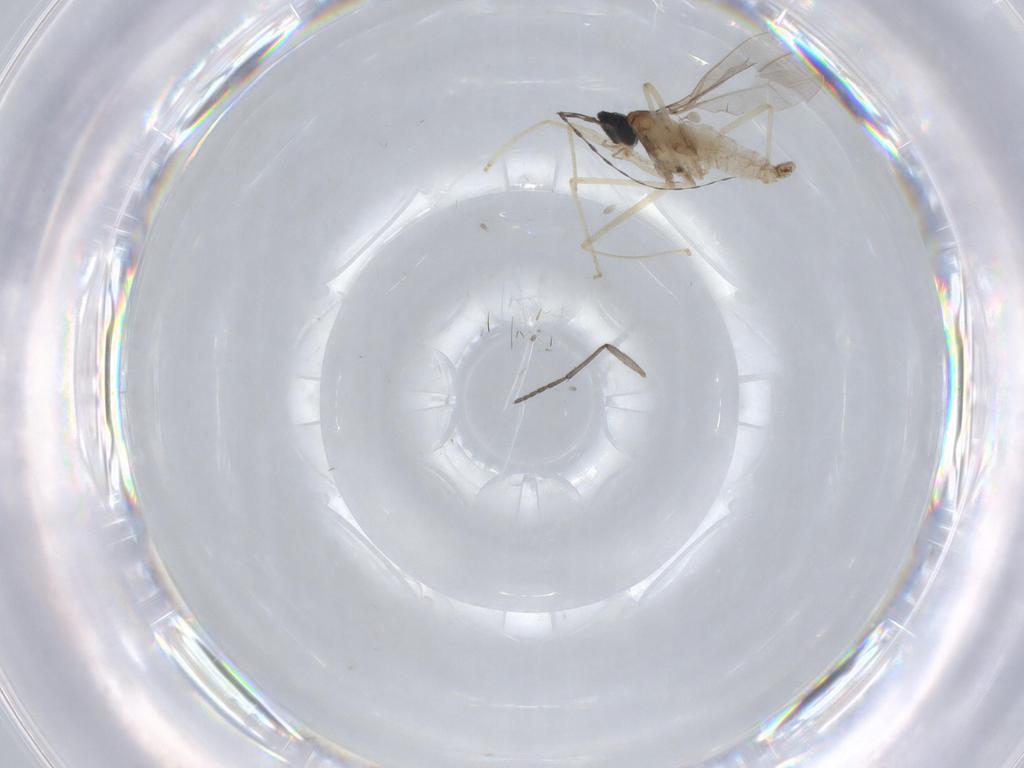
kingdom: Animalia
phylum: Arthropoda
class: Insecta
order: Diptera
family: Cecidomyiidae
